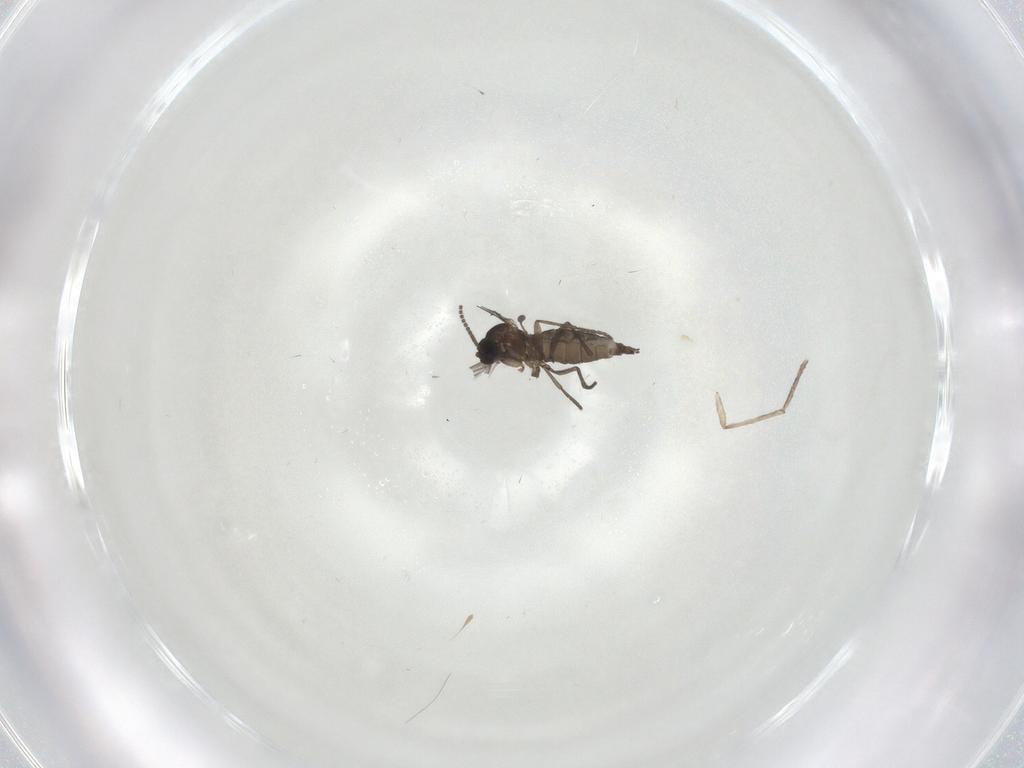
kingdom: Animalia
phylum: Arthropoda
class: Insecta
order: Diptera
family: Sciaridae
